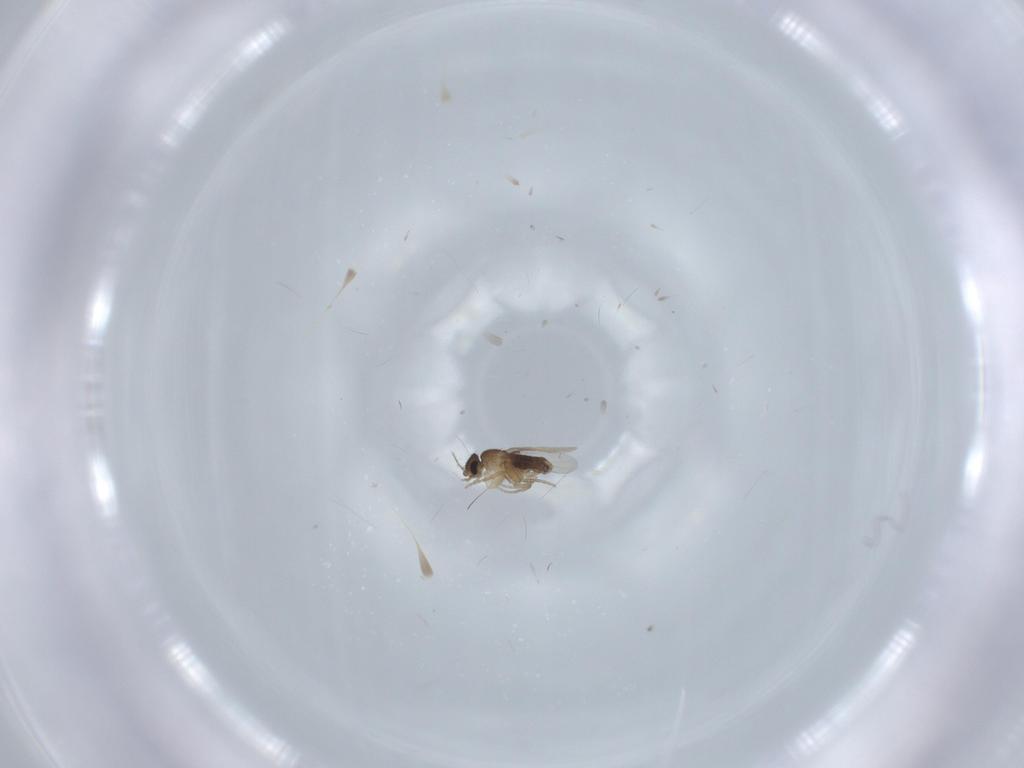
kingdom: Animalia
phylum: Arthropoda
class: Insecta
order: Diptera
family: Phoridae
